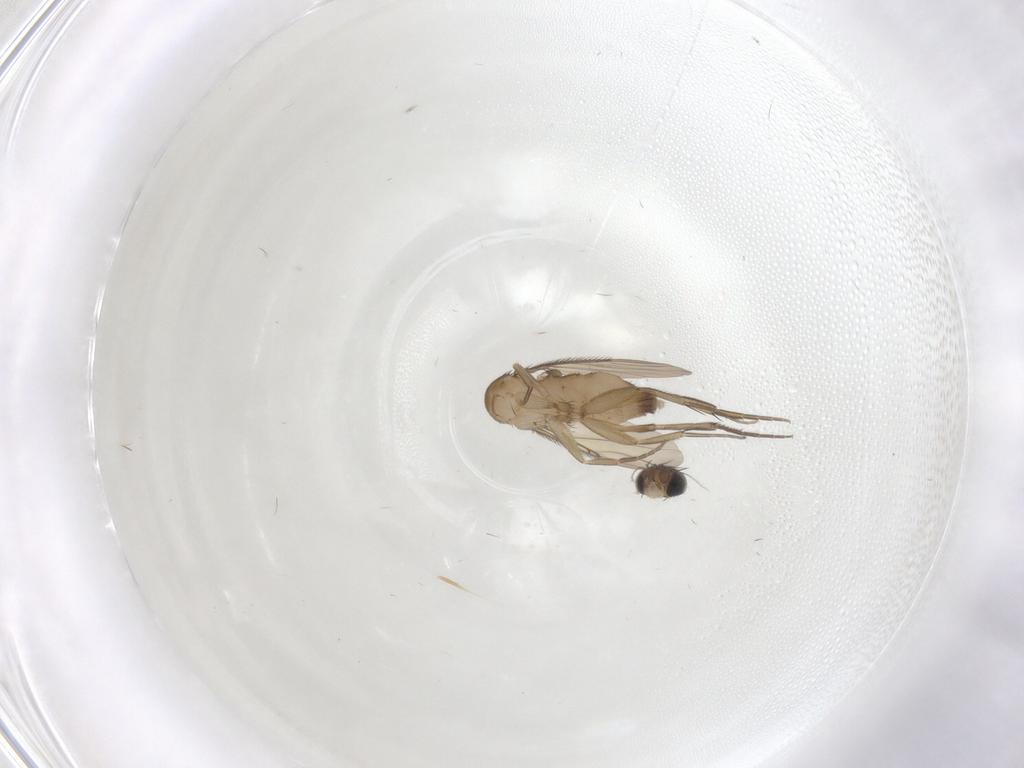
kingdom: Animalia
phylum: Arthropoda
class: Insecta
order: Diptera
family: Phoridae
